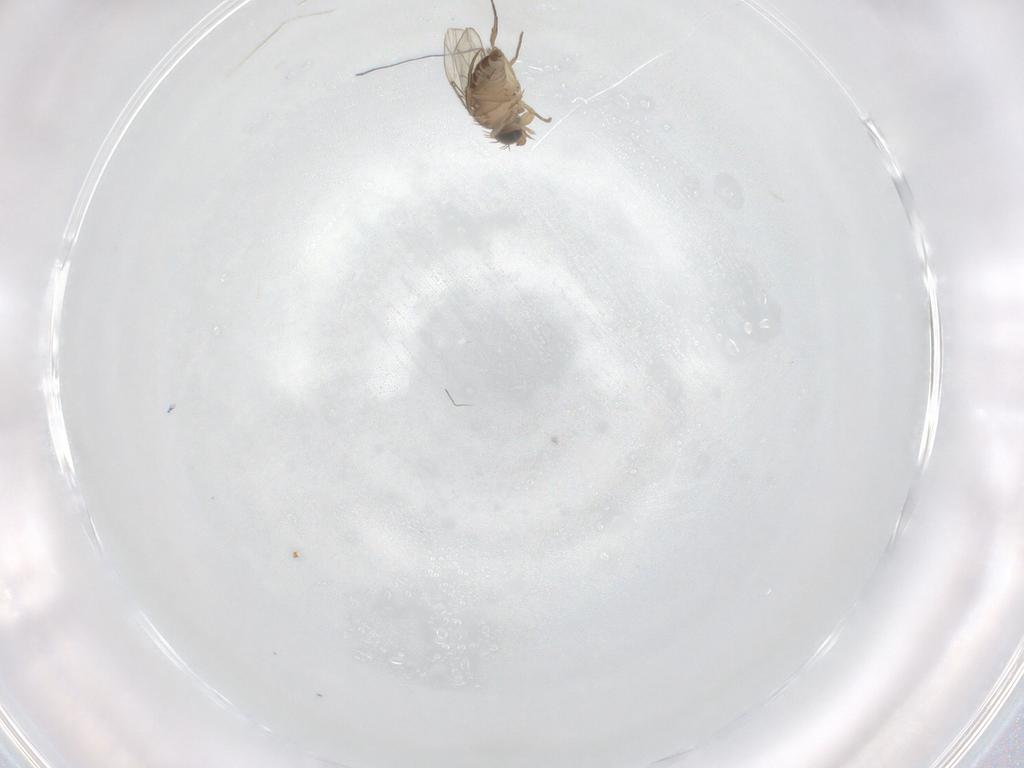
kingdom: Animalia
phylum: Arthropoda
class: Insecta
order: Diptera
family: Phoridae
